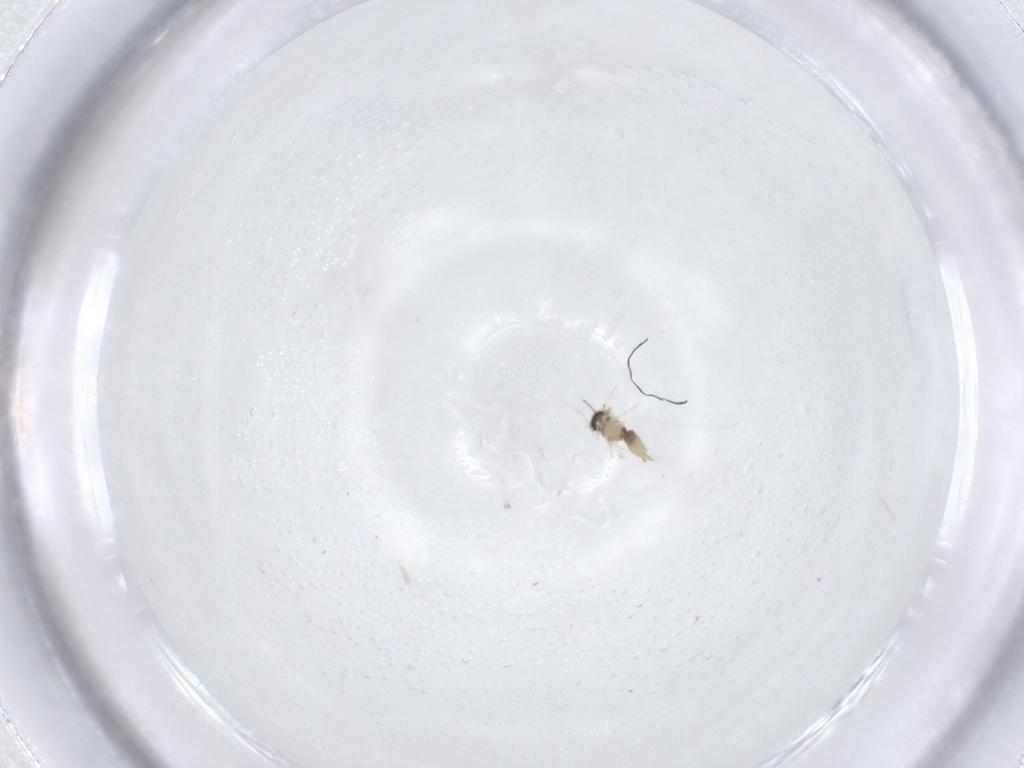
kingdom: Animalia
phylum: Arthropoda
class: Insecta
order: Diptera
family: Cecidomyiidae
